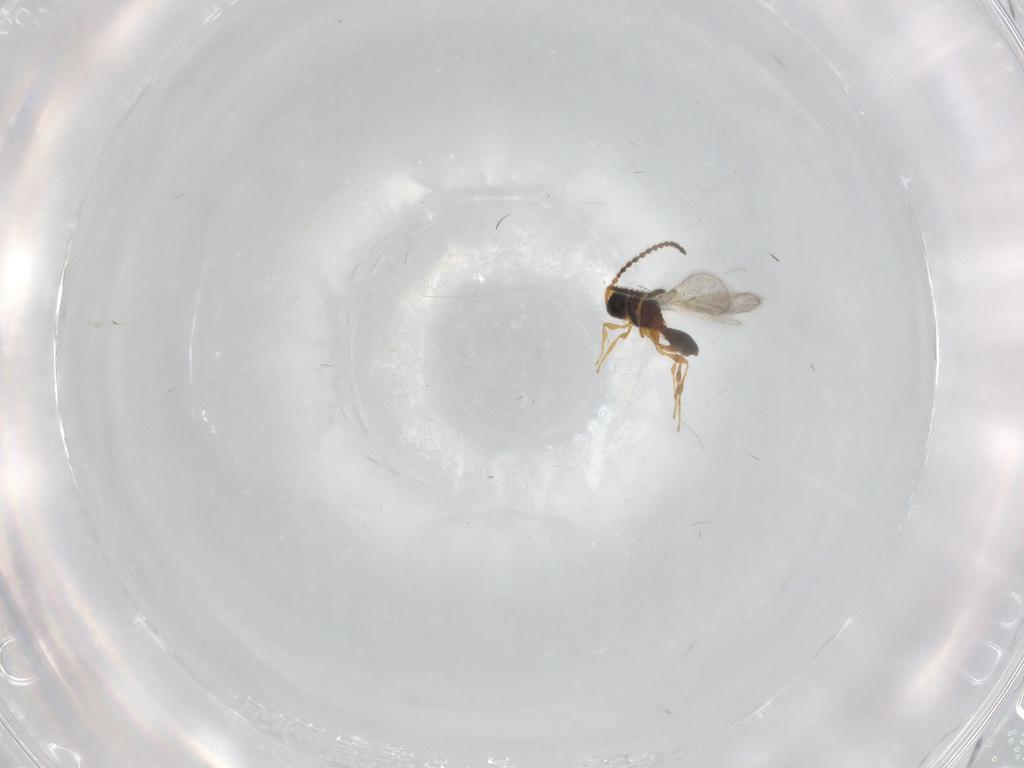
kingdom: Animalia
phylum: Arthropoda
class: Insecta
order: Hymenoptera
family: Diapriidae
